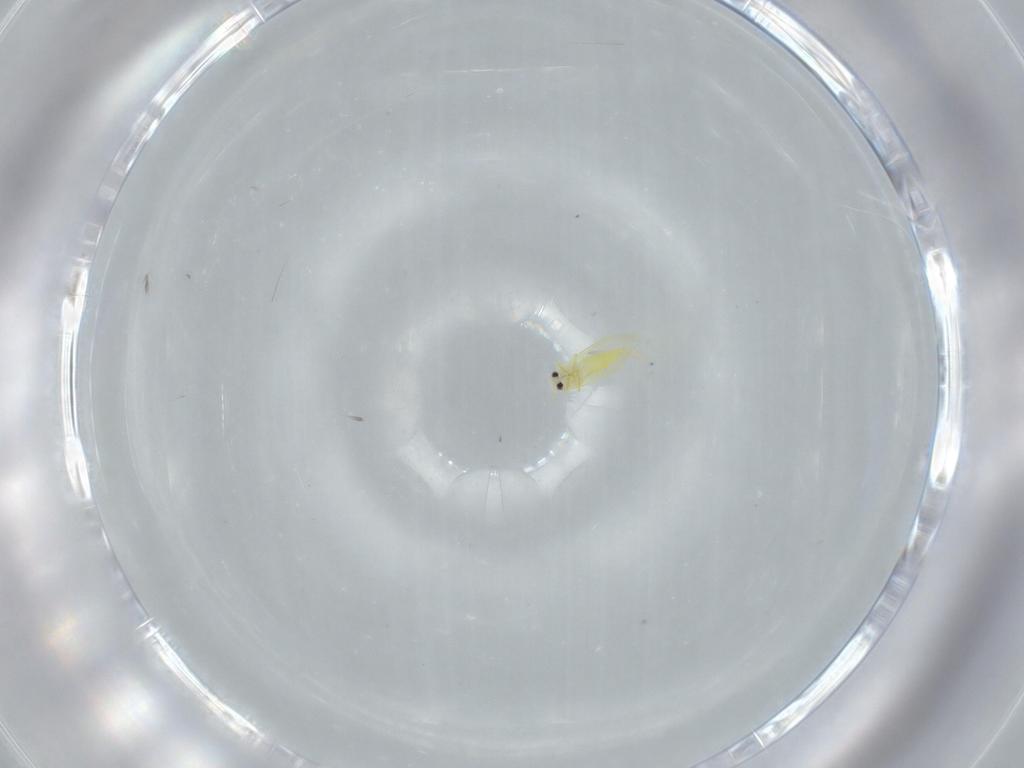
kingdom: Animalia
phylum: Arthropoda
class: Insecta
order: Hemiptera
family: Aleyrodidae
